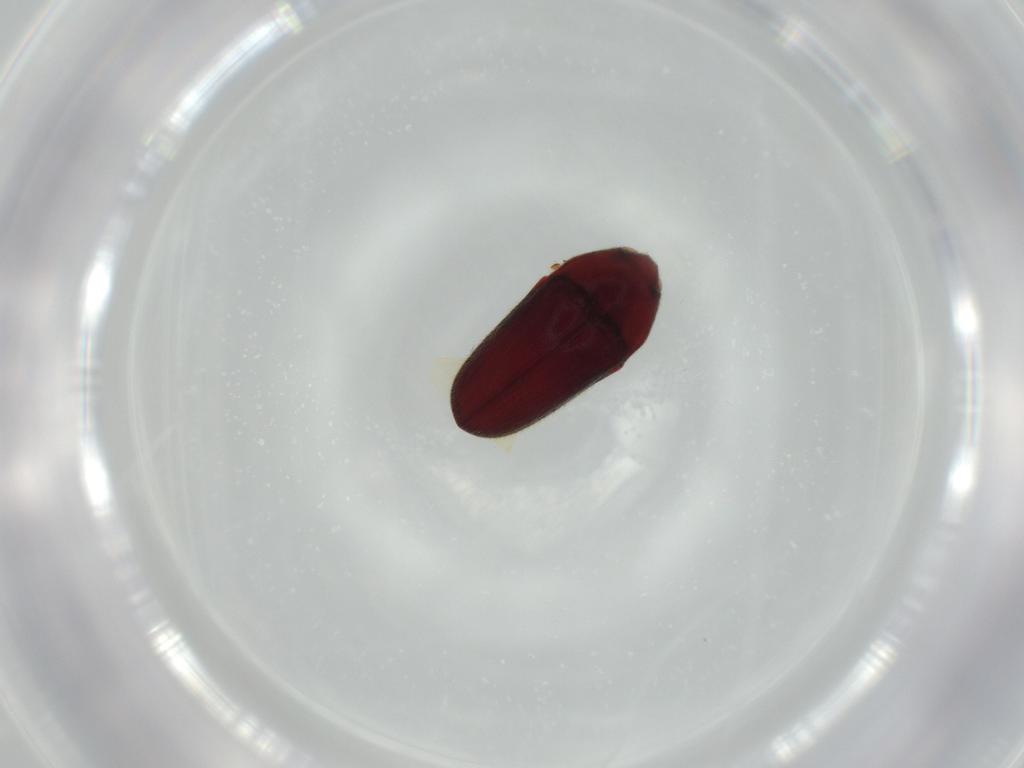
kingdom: Animalia
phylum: Arthropoda
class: Insecta
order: Coleoptera
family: Throscidae
